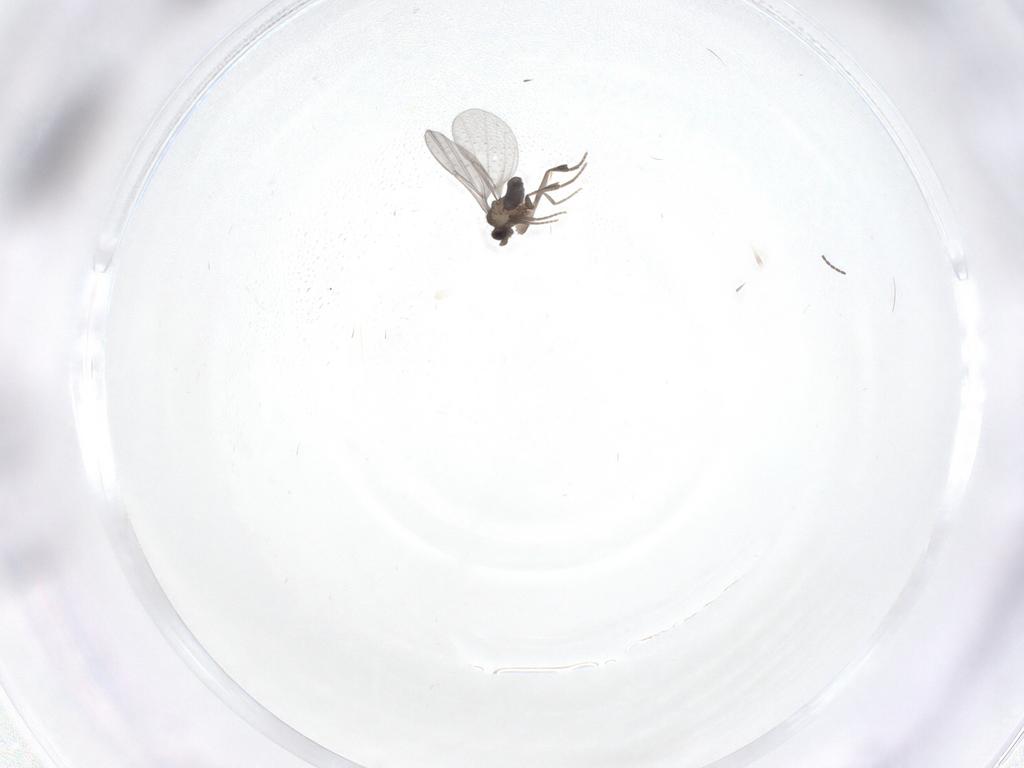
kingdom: Animalia
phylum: Arthropoda
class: Insecta
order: Diptera
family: Phoridae
